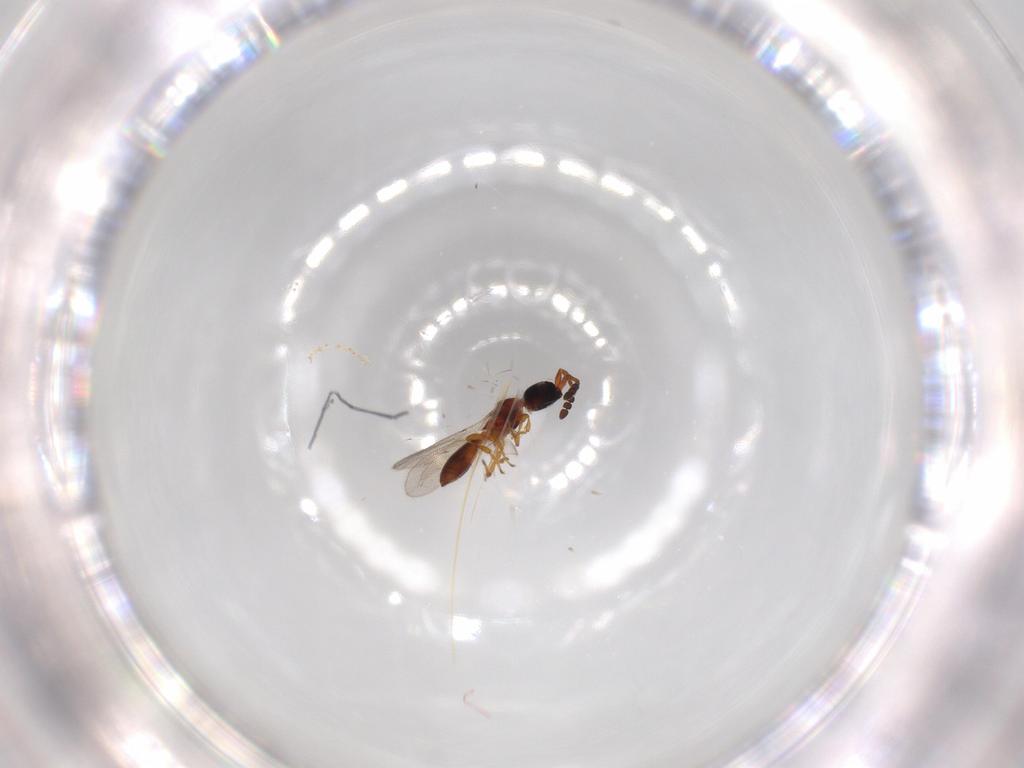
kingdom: Animalia
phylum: Arthropoda
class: Insecta
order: Hymenoptera
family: Diapriidae
